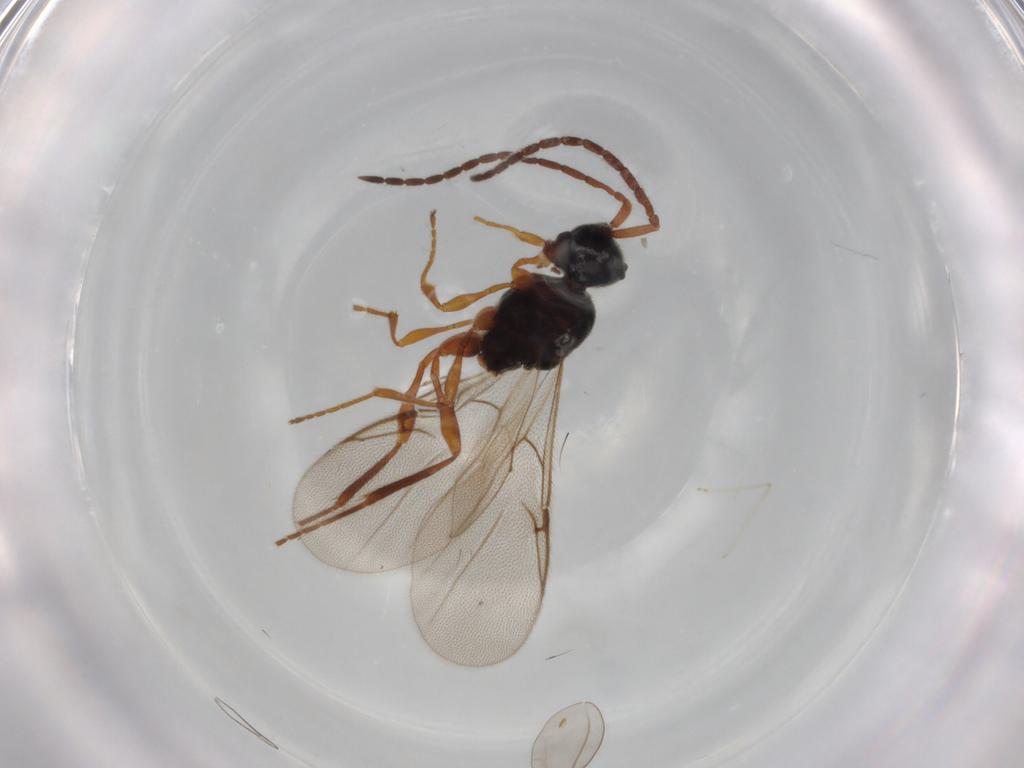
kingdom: Animalia
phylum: Arthropoda
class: Insecta
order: Hymenoptera
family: Ichneumonidae
